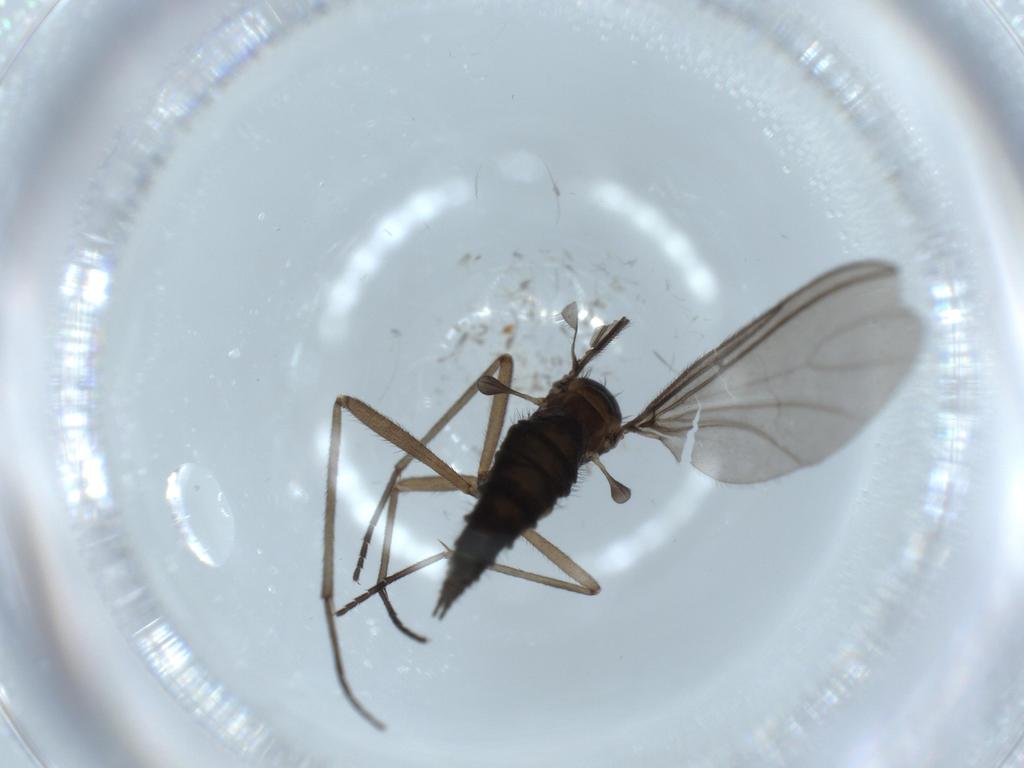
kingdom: Animalia
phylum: Arthropoda
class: Insecta
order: Diptera
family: Sciaridae
